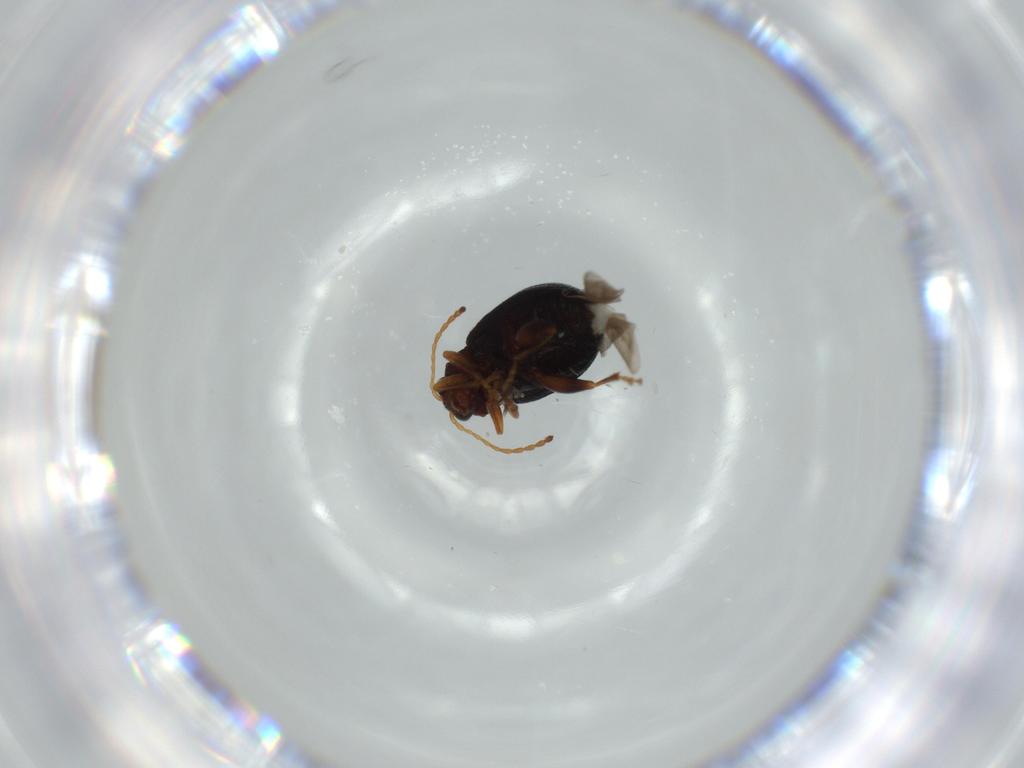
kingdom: Animalia
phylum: Arthropoda
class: Insecta
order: Coleoptera
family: Chrysomelidae
